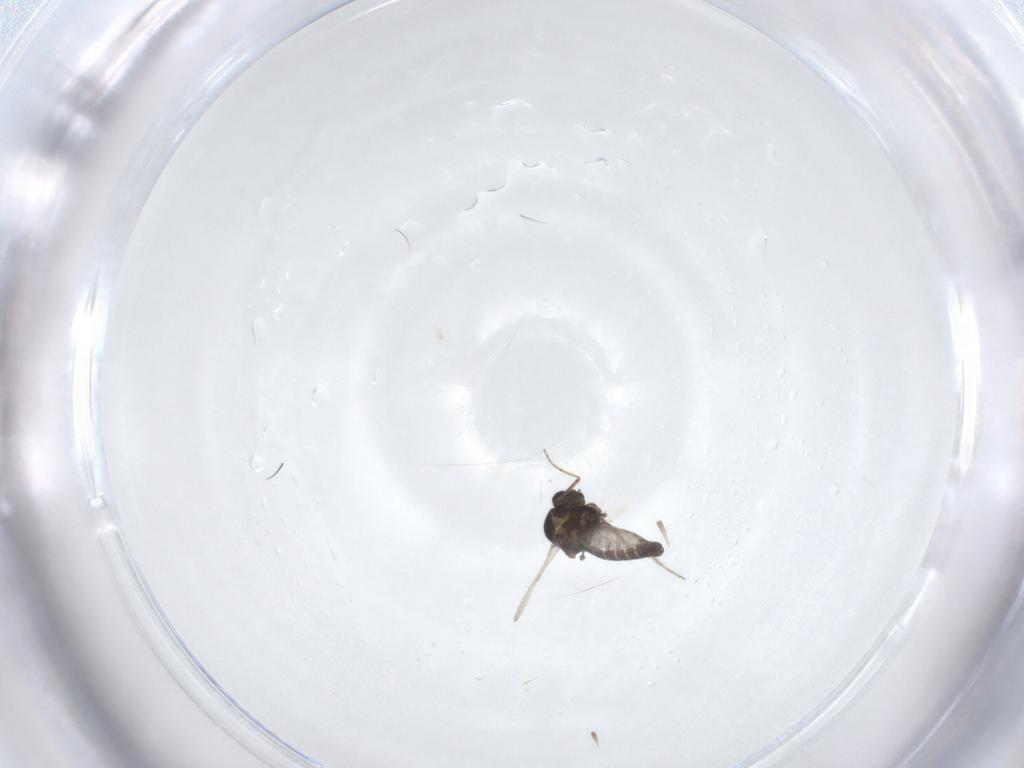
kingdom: Animalia
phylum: Arthropoda
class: Insecta
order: Diptera
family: Ceratopogonidae
